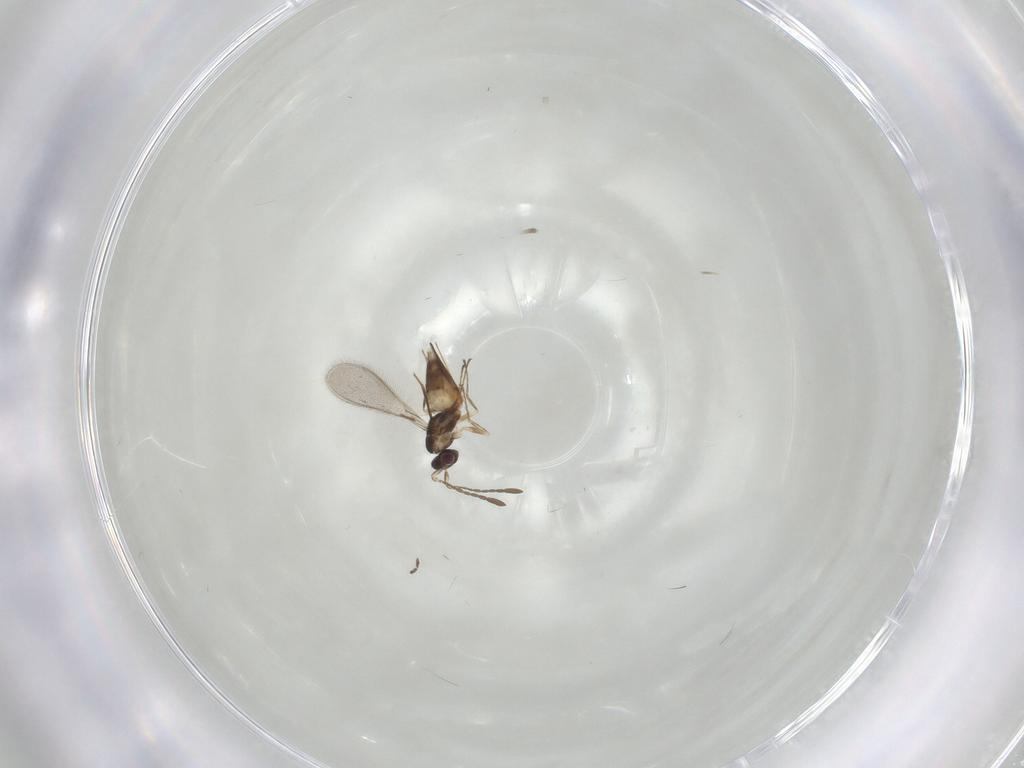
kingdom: Animalia
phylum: Arthropoda
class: Insecta
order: Hymenoptera
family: Mymaridae
